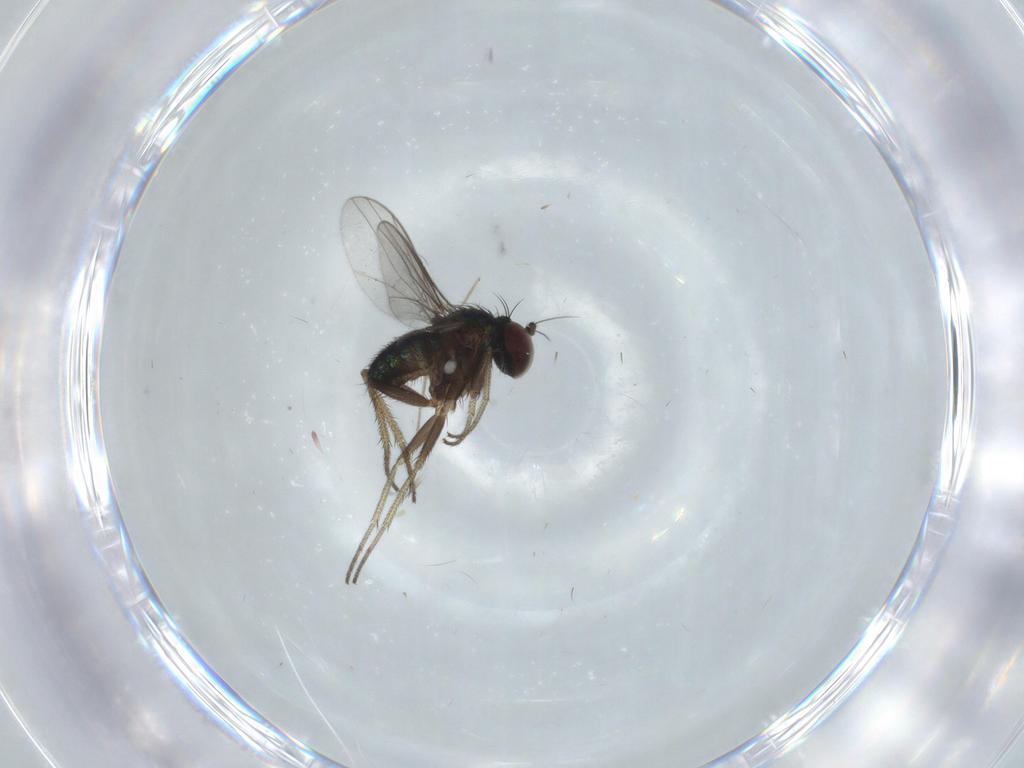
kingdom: Animalia
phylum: Arthropoda
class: Insecta
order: Diptera
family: Sciaridae
